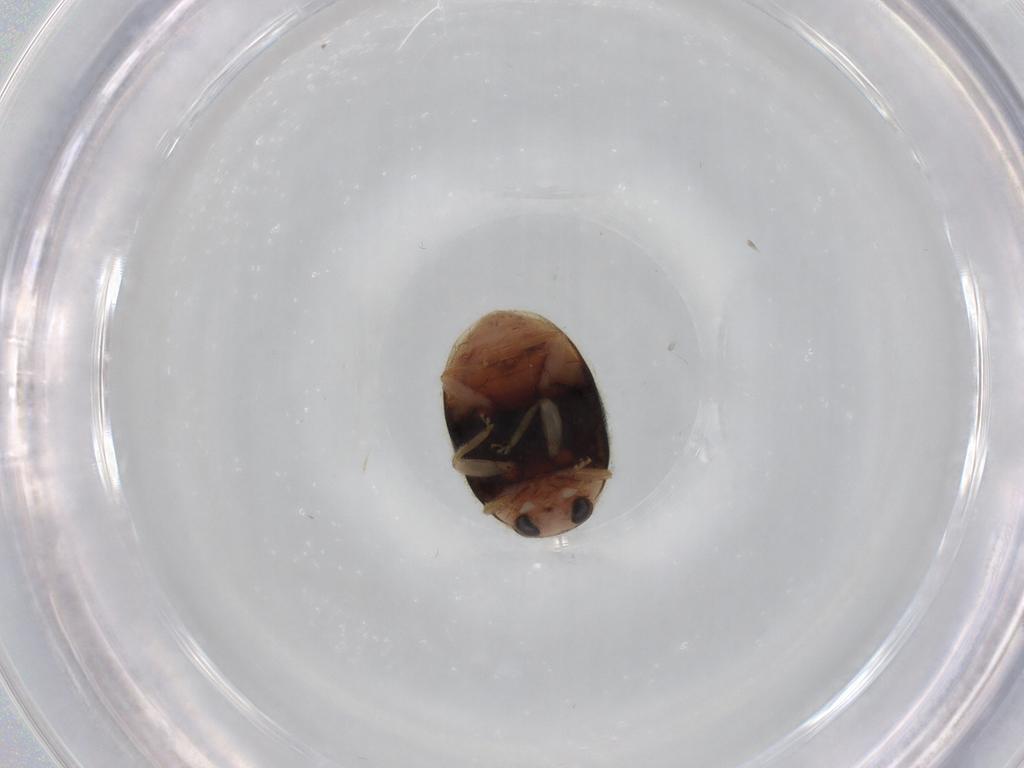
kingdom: Animalia
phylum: Arthropoda
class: Insecta
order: Coleoptera
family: Coccinellidae
